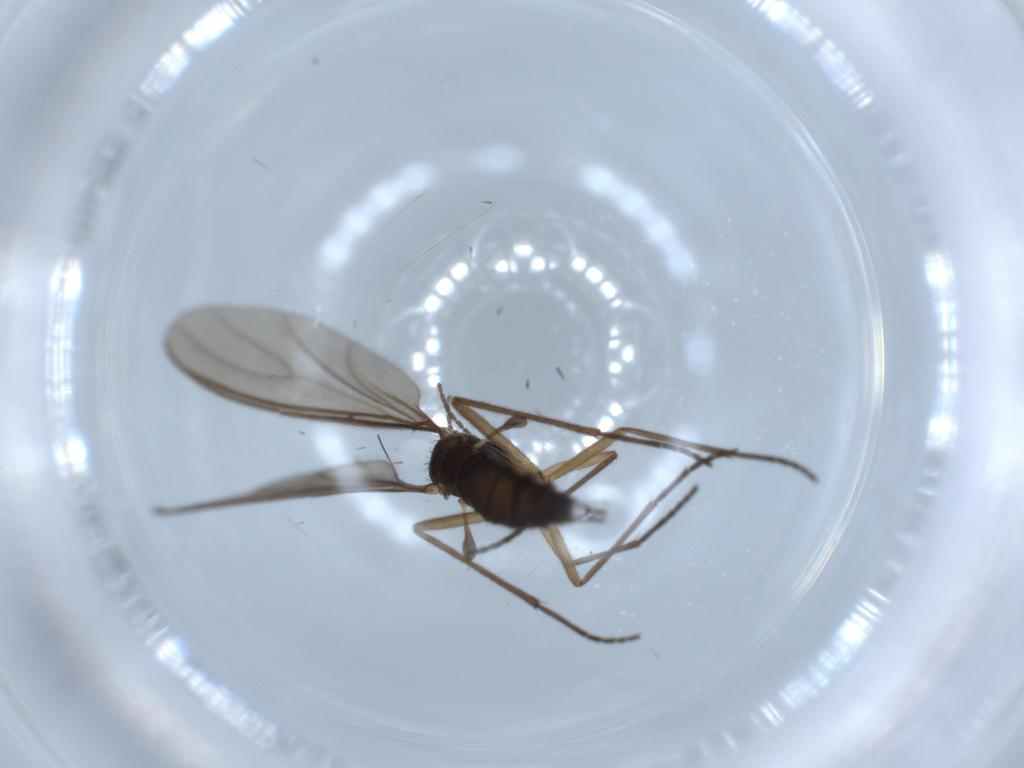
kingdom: Animalia
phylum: Arthropoda
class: Insecta
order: Diptera
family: Sciaridae
